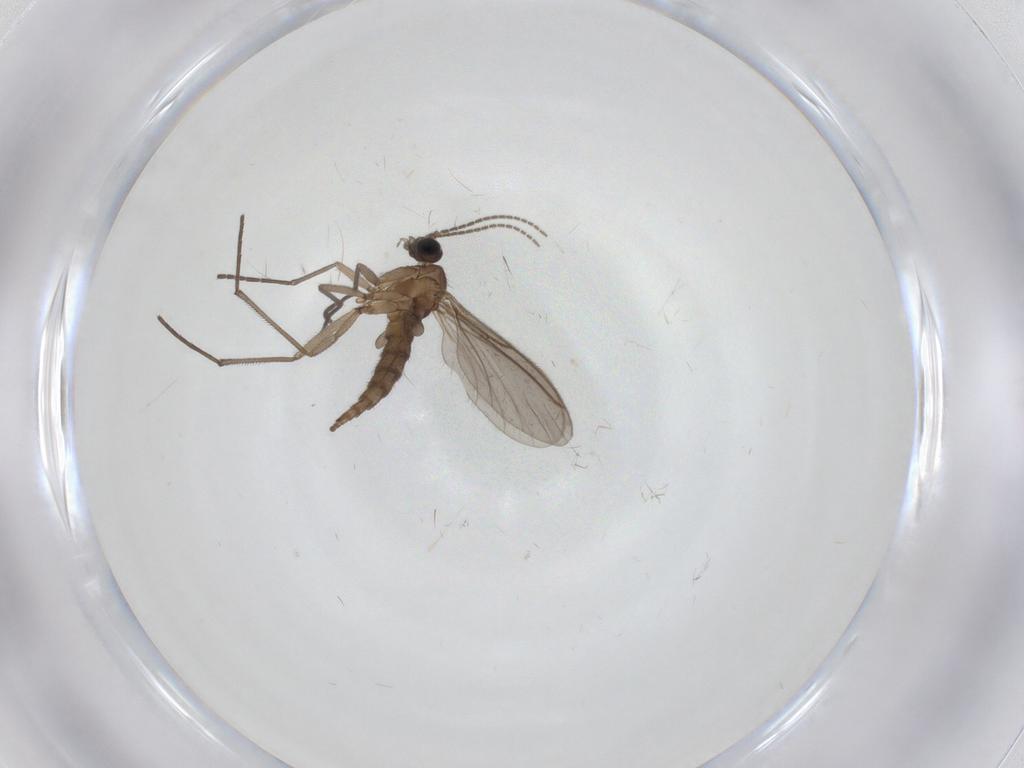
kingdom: Animalia
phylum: Arthropoda
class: Insecta
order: Diptera
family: Sciaridae
